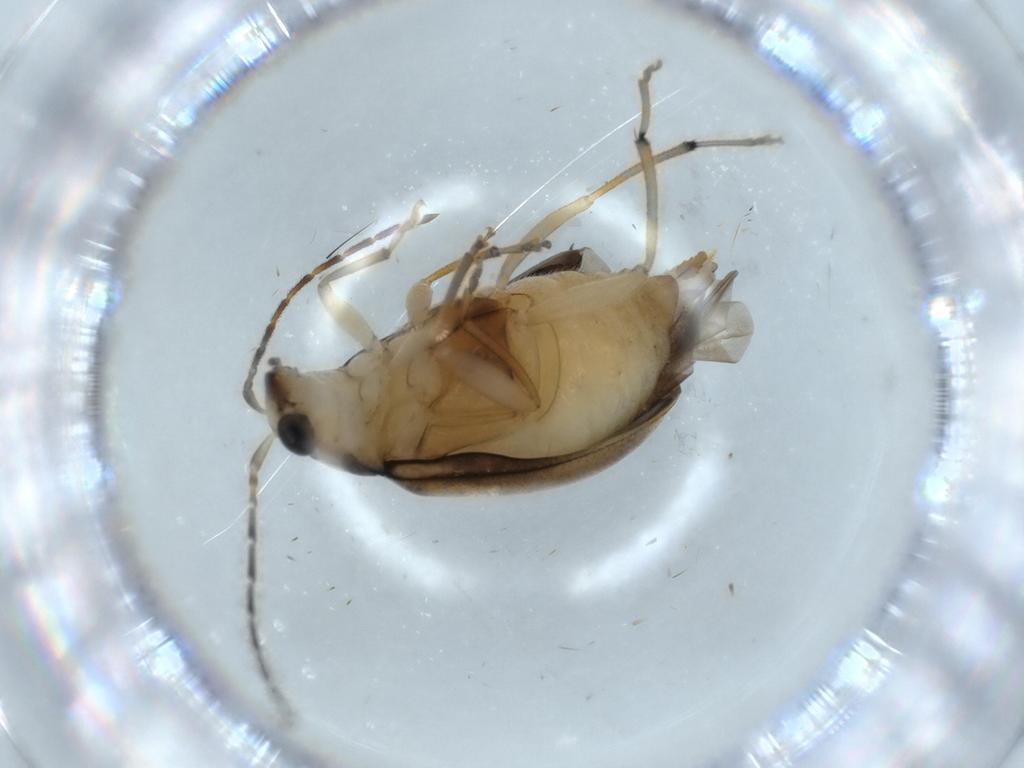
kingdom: Animalia
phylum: Arthropoda
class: Insecta
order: Coleoptera
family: Chrysomelidae
